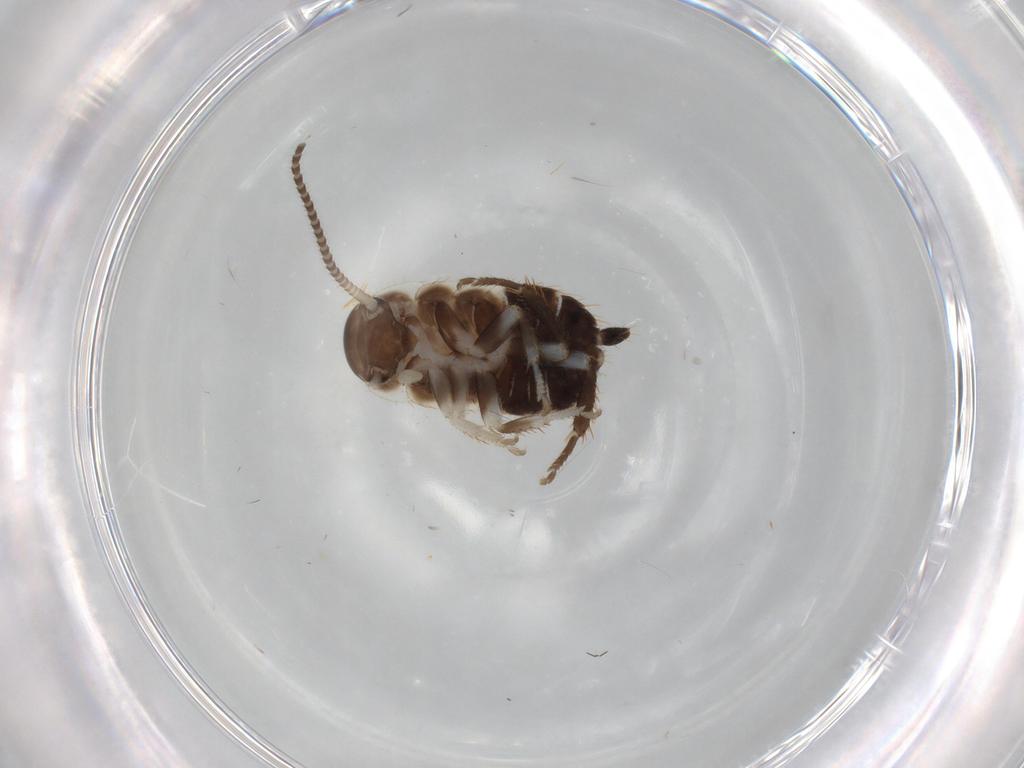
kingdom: Animalia
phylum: Arthropoda
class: Insecta
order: Blattodea
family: Ectobiidae
